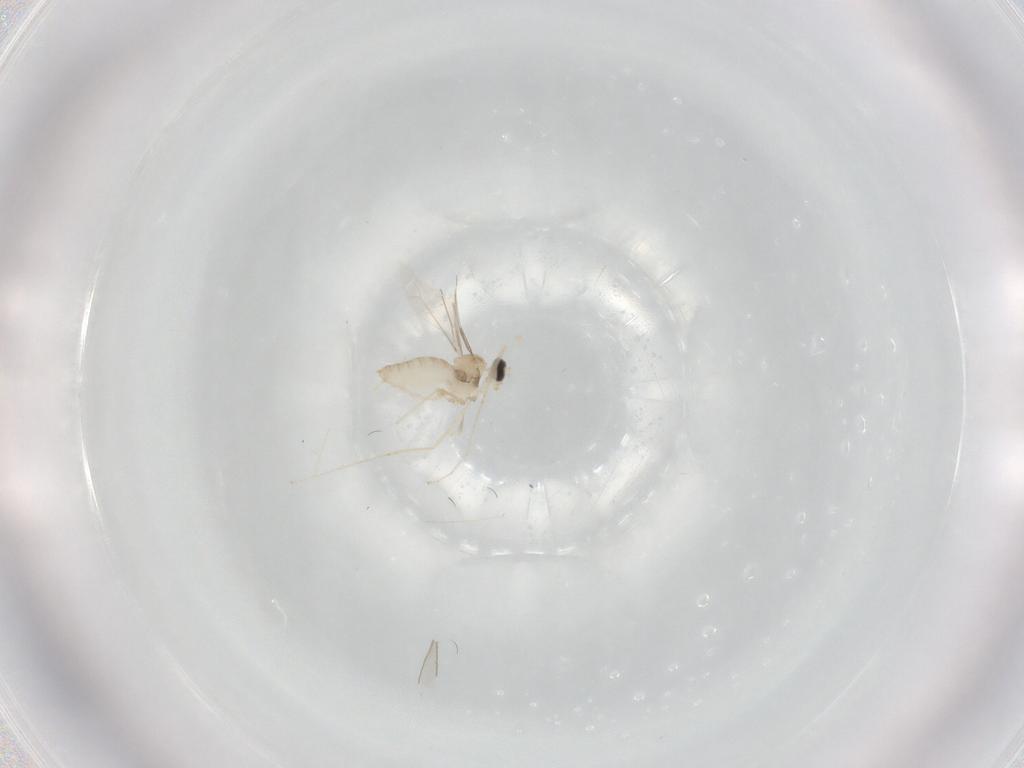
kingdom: Animalia
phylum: Arthropoda
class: Insecta
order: Diptera
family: Cecidomyiidae
